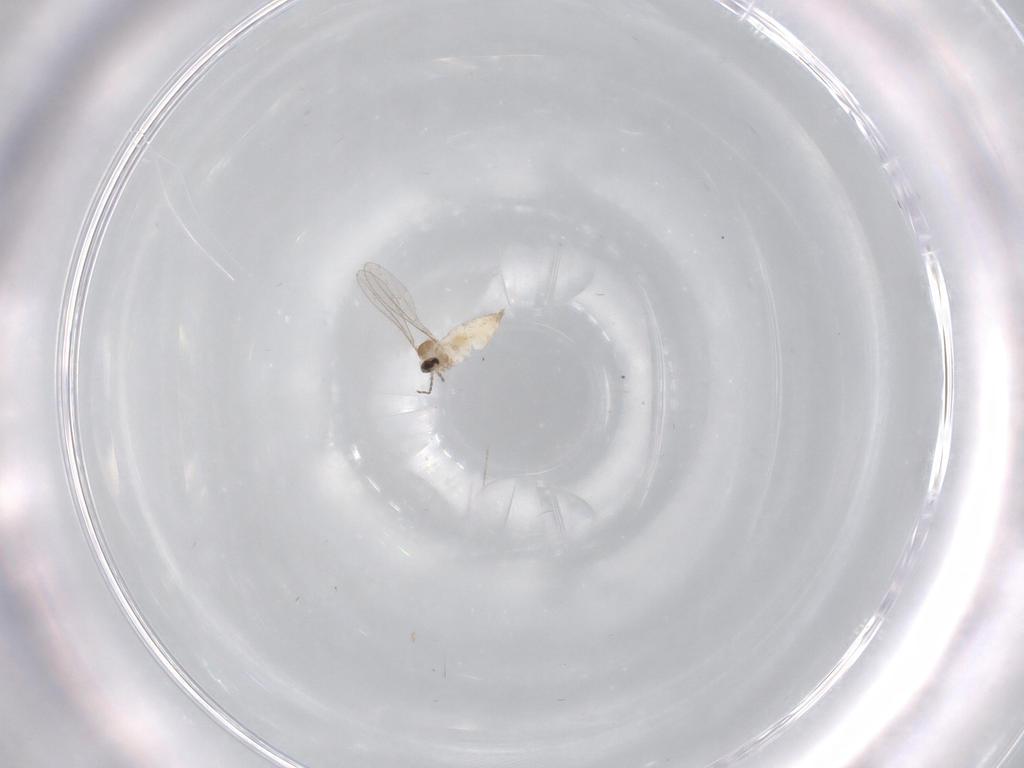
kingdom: Animalia
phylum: Arthropoda
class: Insecta
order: Diptera
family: Cecidomyiidae
